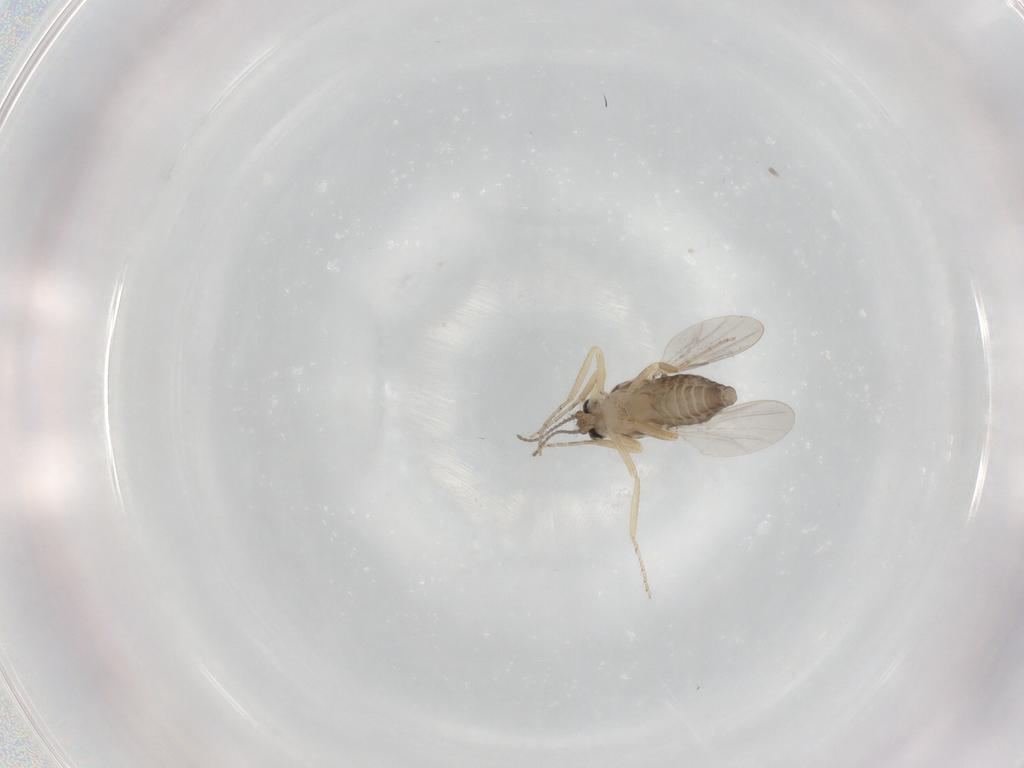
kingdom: Animalia
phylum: Arthropoda
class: Insecta
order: Diptera
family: Ceratopogonidae
